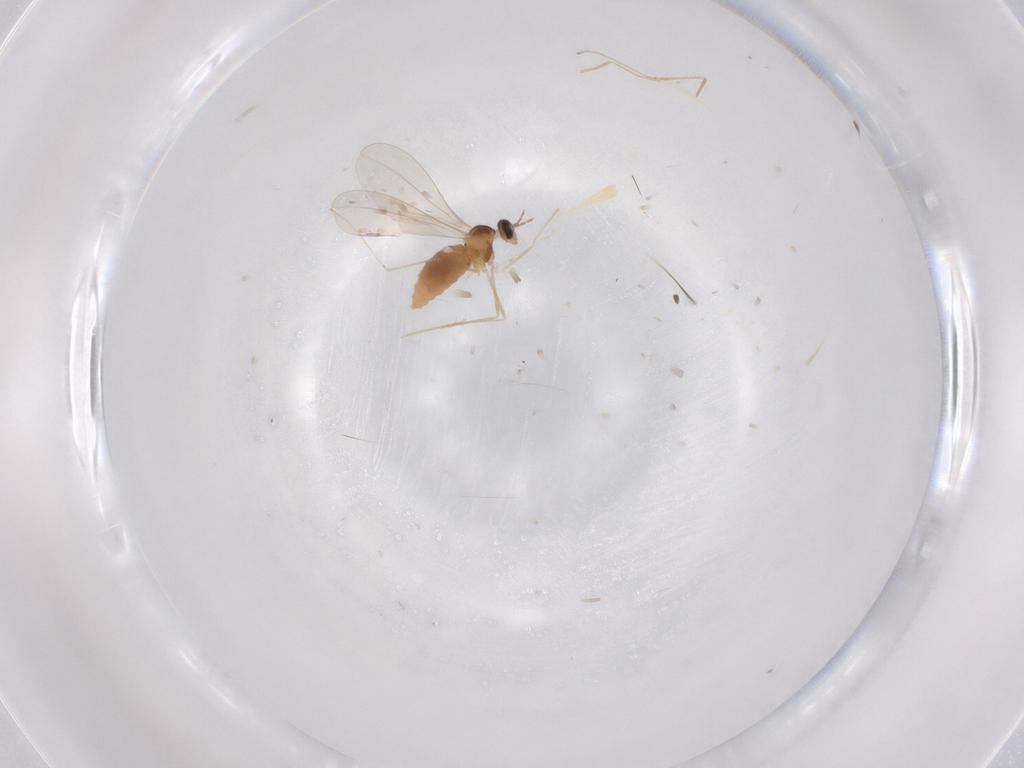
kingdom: Animalia
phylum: Arthropoda
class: Insecta
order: Diptera
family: Cecidomyiidae
